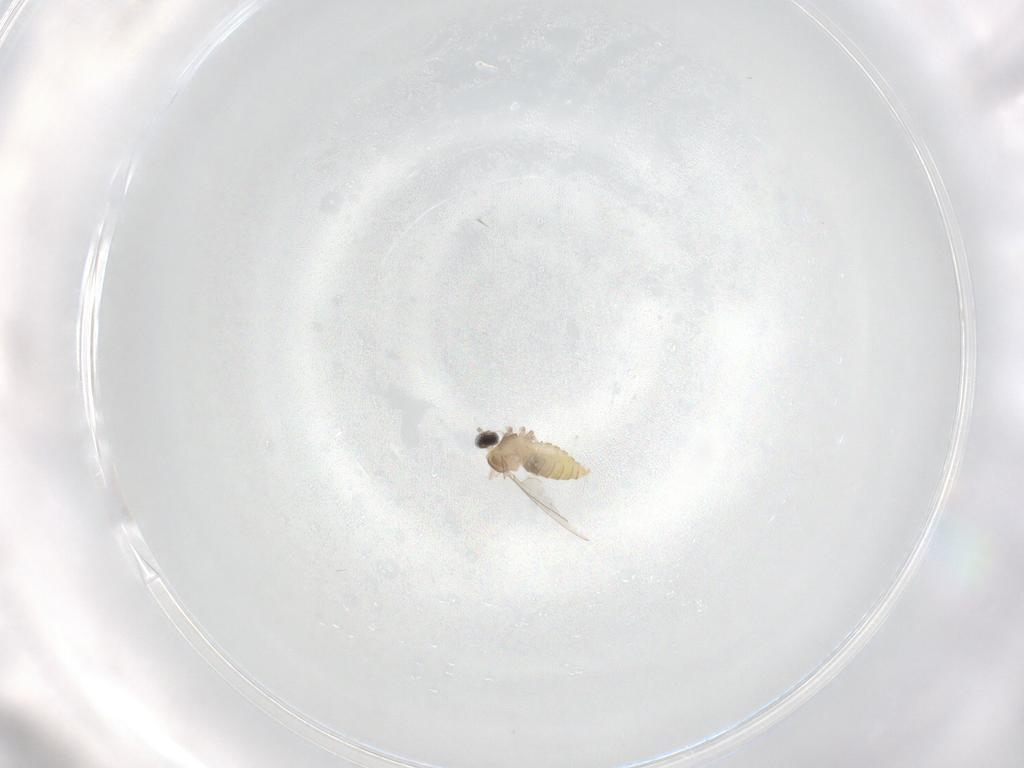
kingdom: Animalia
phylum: Arthropoda
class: Insecta
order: Diptera
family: Cecidomyiidae
